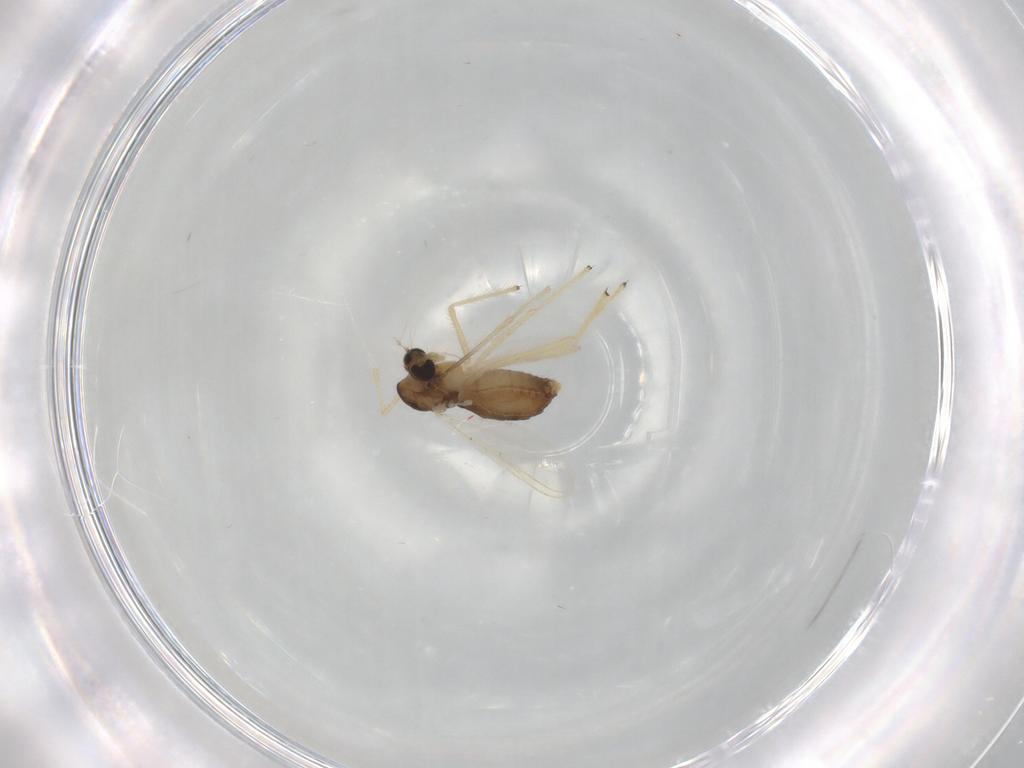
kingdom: Animalia
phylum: Arthropoda
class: Insecta
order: Diptera
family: Chironomidae
